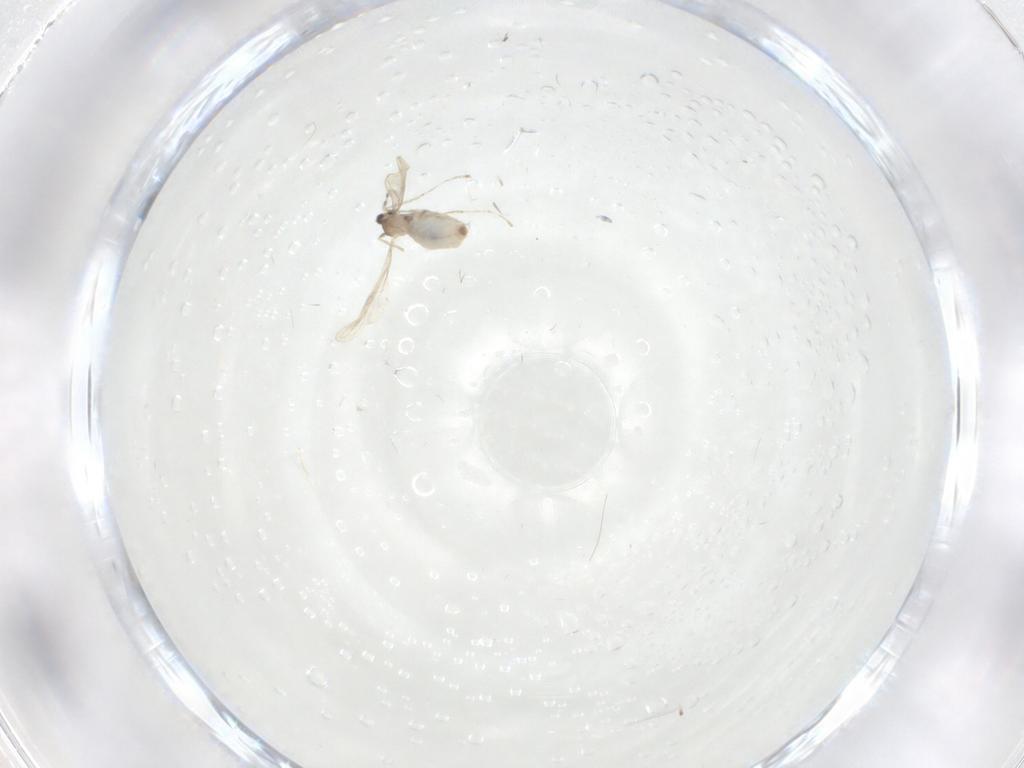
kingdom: Animalia
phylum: Arthropoda
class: Insecta
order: Diptera
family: Cecidomyiidae
